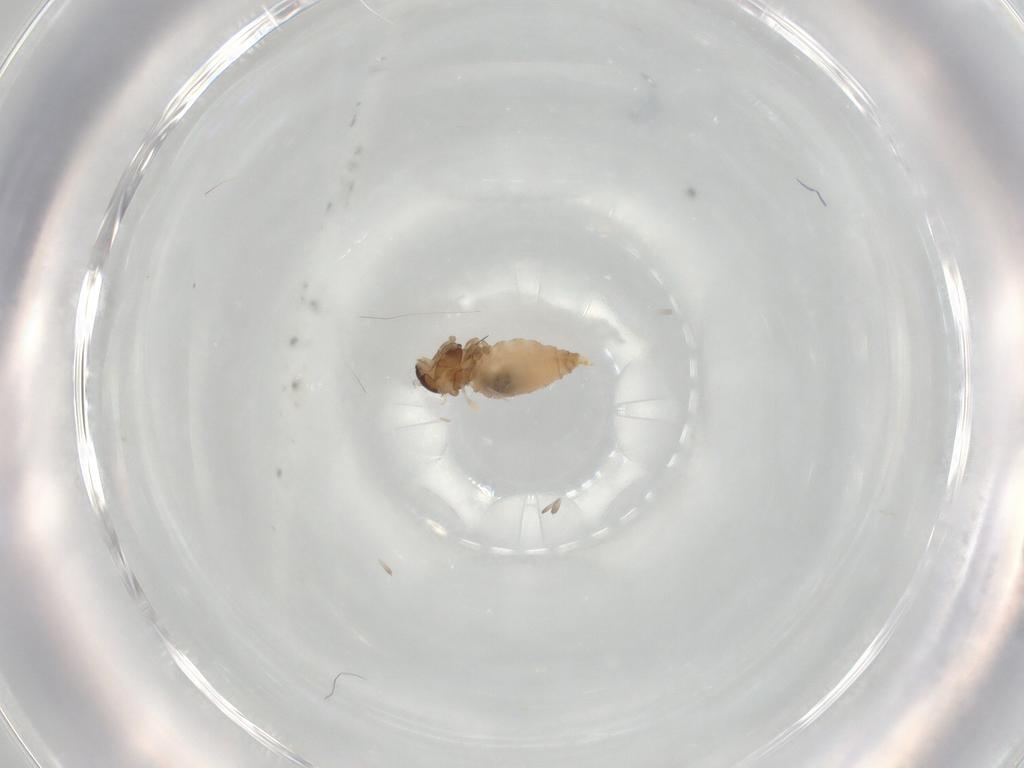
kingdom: Animalia
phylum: Arthropoda
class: Insecta
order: Diptera
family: Cecidomyiidae
